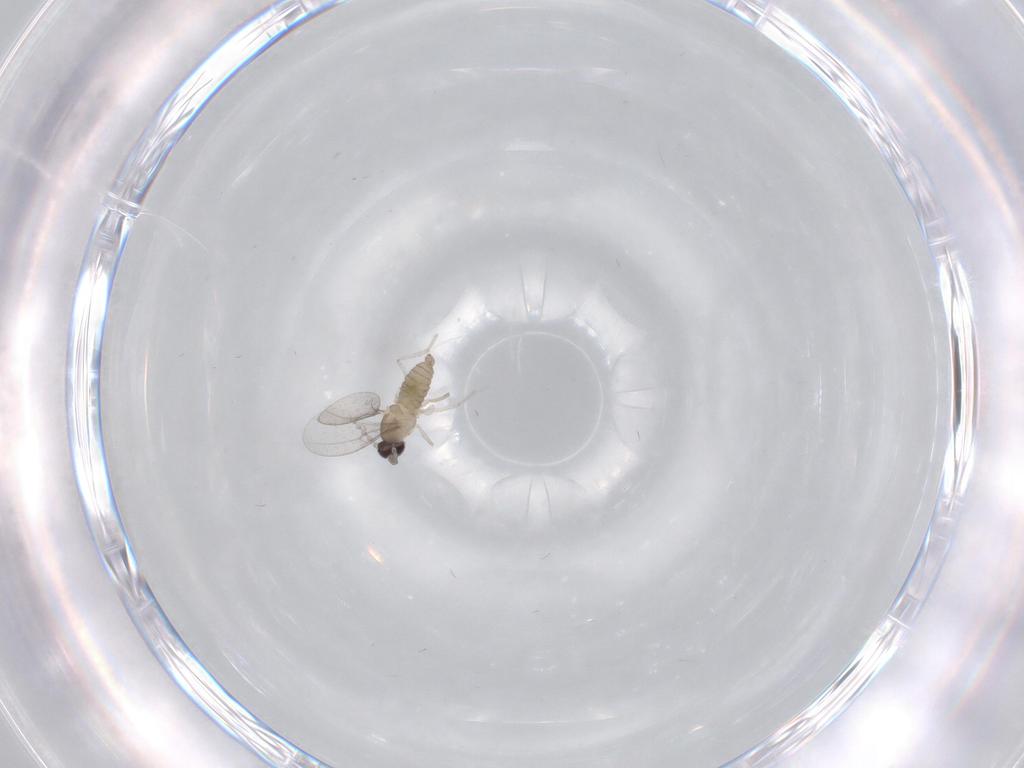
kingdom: Animalia
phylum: Arthropoda
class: Insecta
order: Diptera
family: Cecidomyiidae
